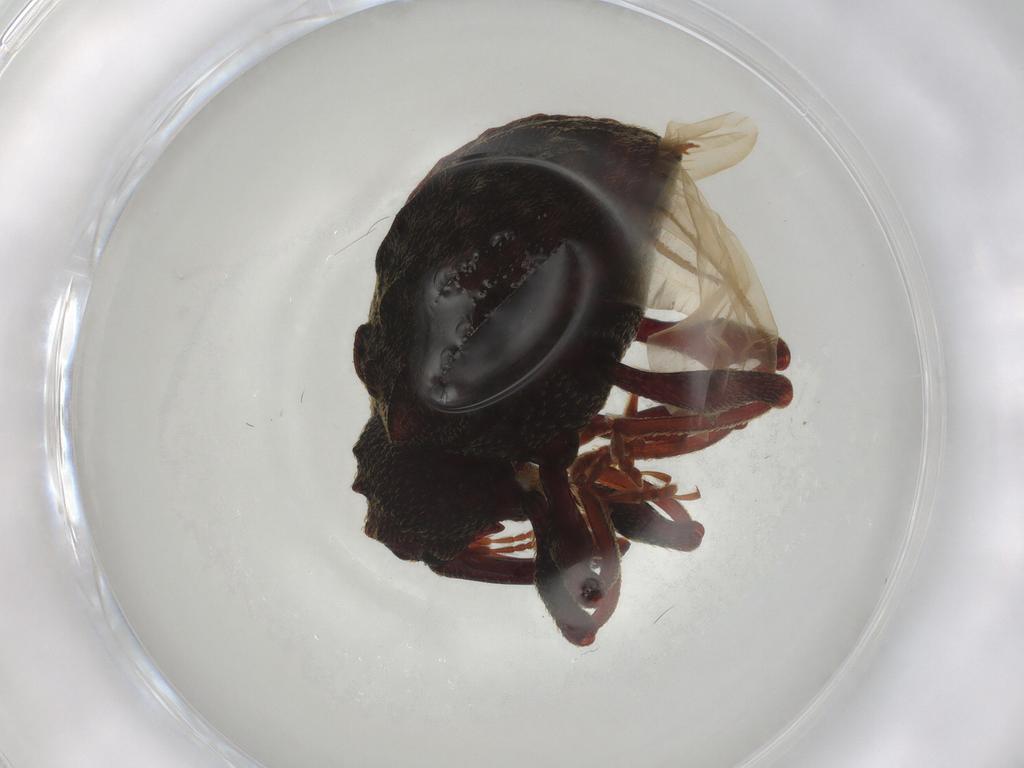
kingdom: Animalia
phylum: Arthropoda
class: Insecta
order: Coleoptera
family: Curculionidae
